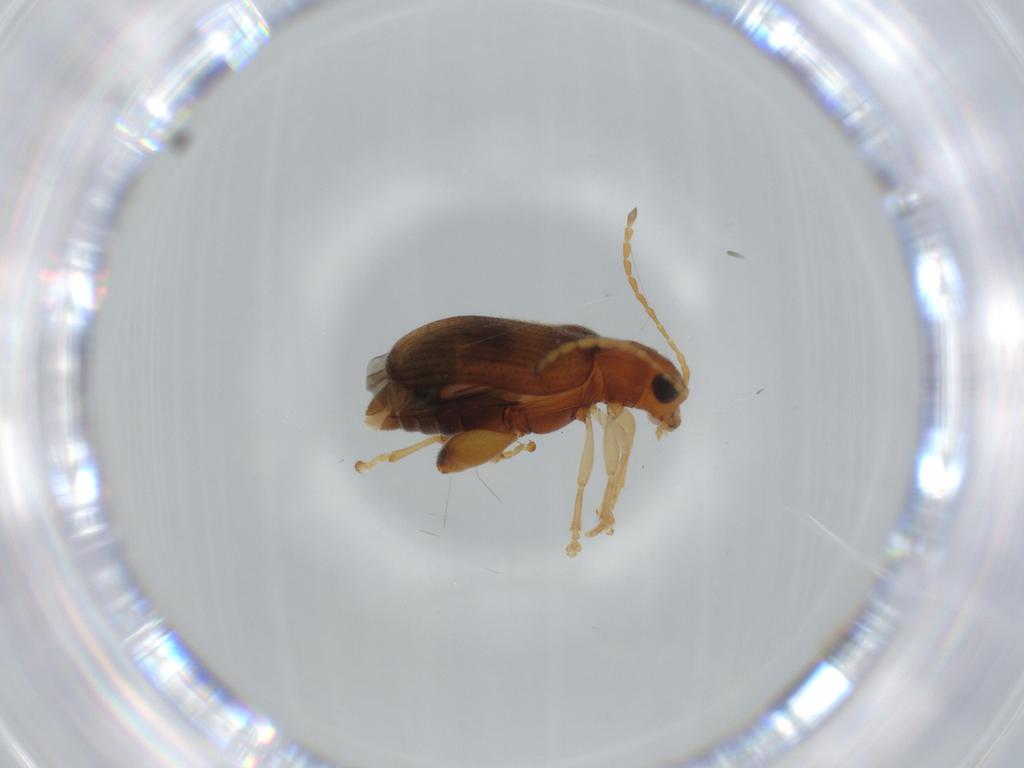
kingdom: Animalia
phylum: Arthropoda
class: Insecta
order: Coleoptera
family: Chrysomelidae
